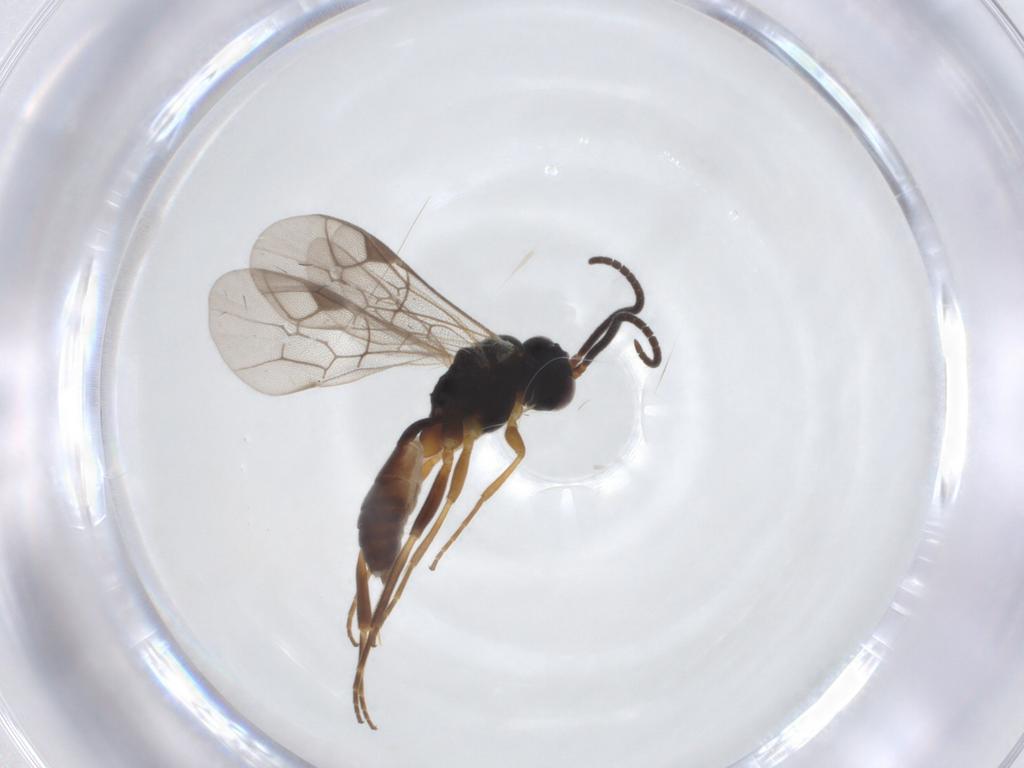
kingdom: Animalia
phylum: Arthropoda
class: Insecta
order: Hymenoptera
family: Ichneumonidae
